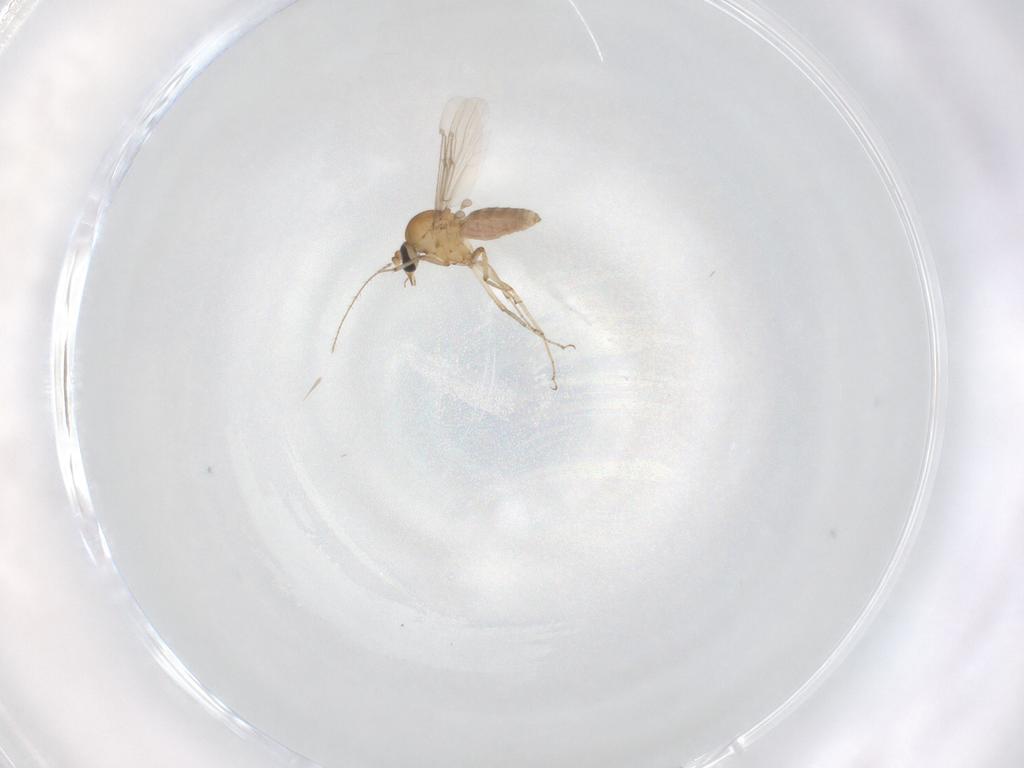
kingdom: Animalia
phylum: Arthropoda
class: Insecta
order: Diptera
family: Ceratopogonidae
